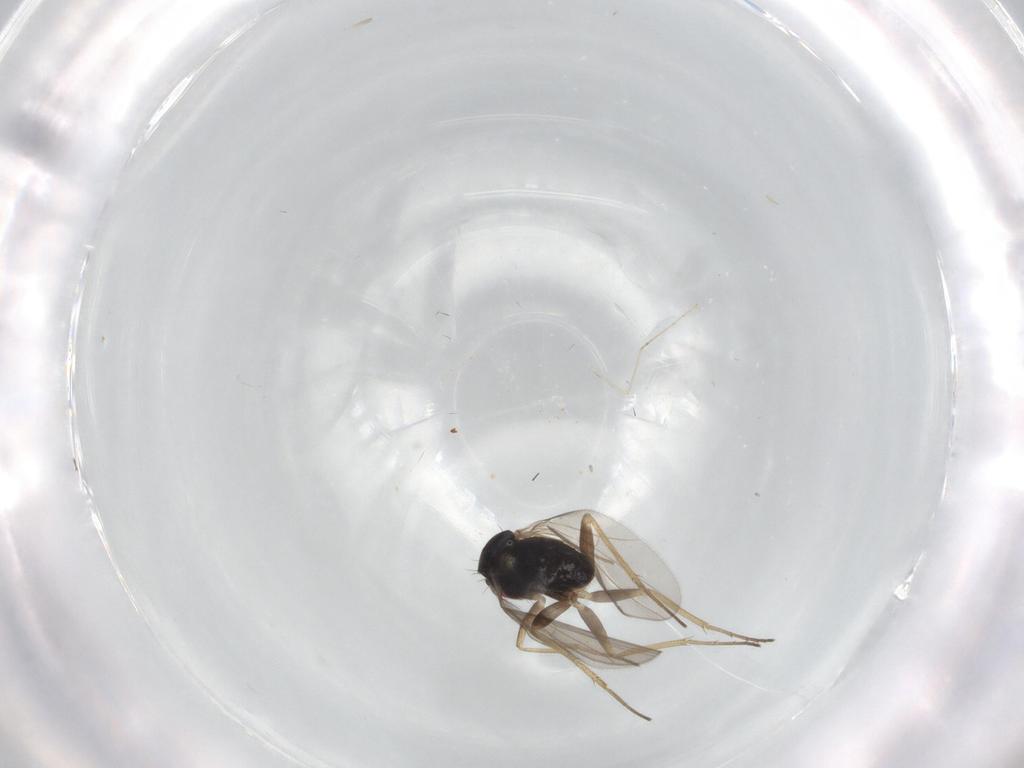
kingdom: Animalia
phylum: Arthropoda
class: Insecta
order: Diptera
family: Dolichopodidae
